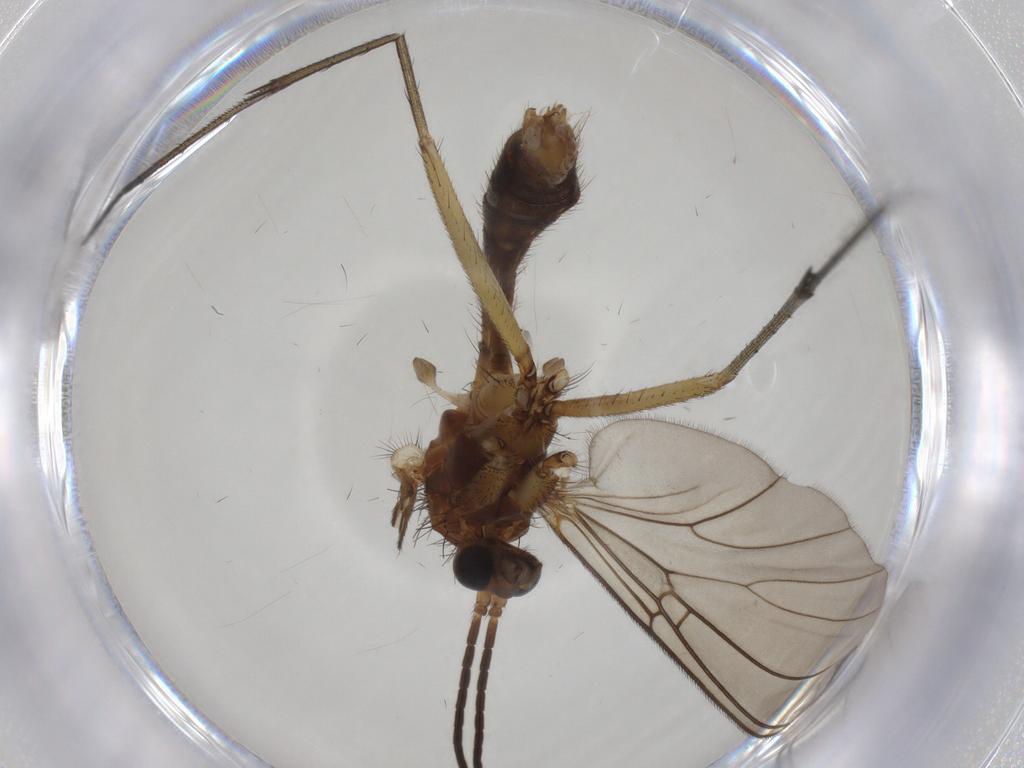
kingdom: Animalia
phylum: Arthropoda
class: Insecta
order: Diptera
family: Mycetophilidae
